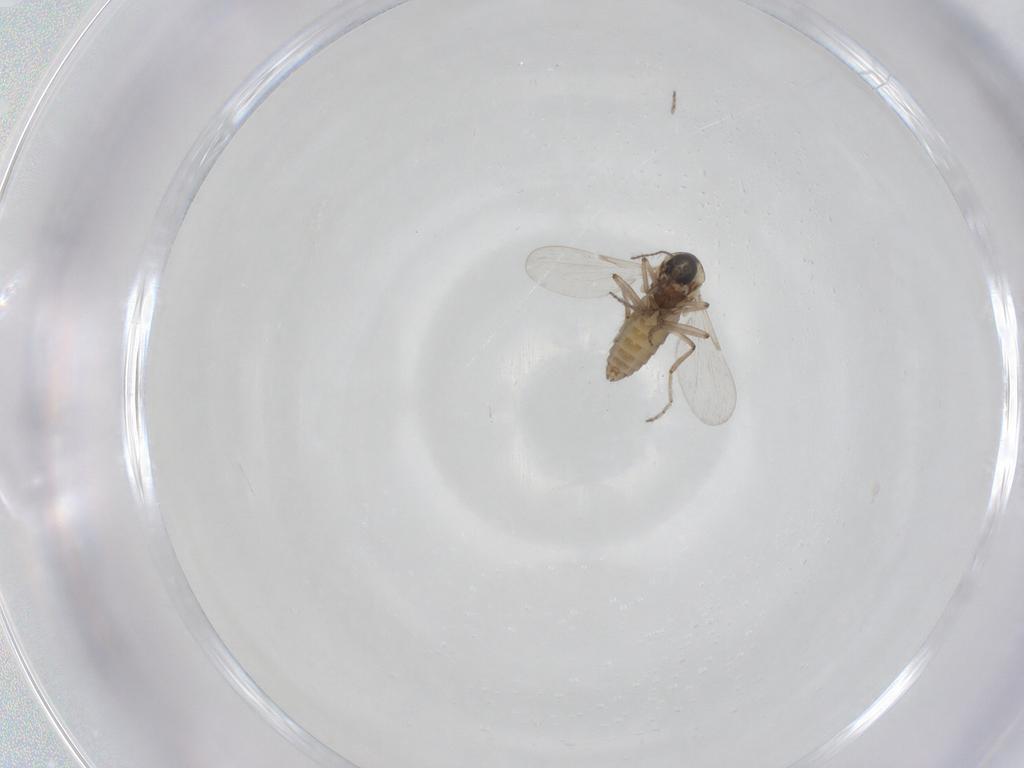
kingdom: Animalia
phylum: Arthropoda
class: Insecta
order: Diptera
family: Ceratopogonidae
